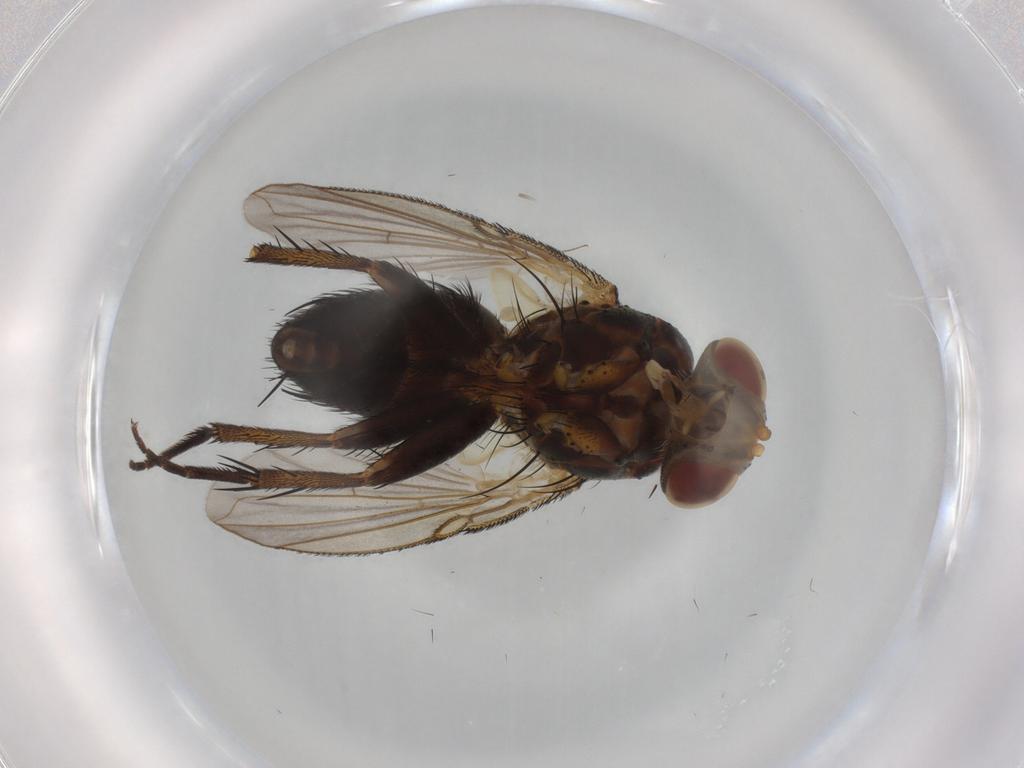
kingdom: Animalia
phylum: Arthropoda
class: Insecta
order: Diptera
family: Tachinidae
